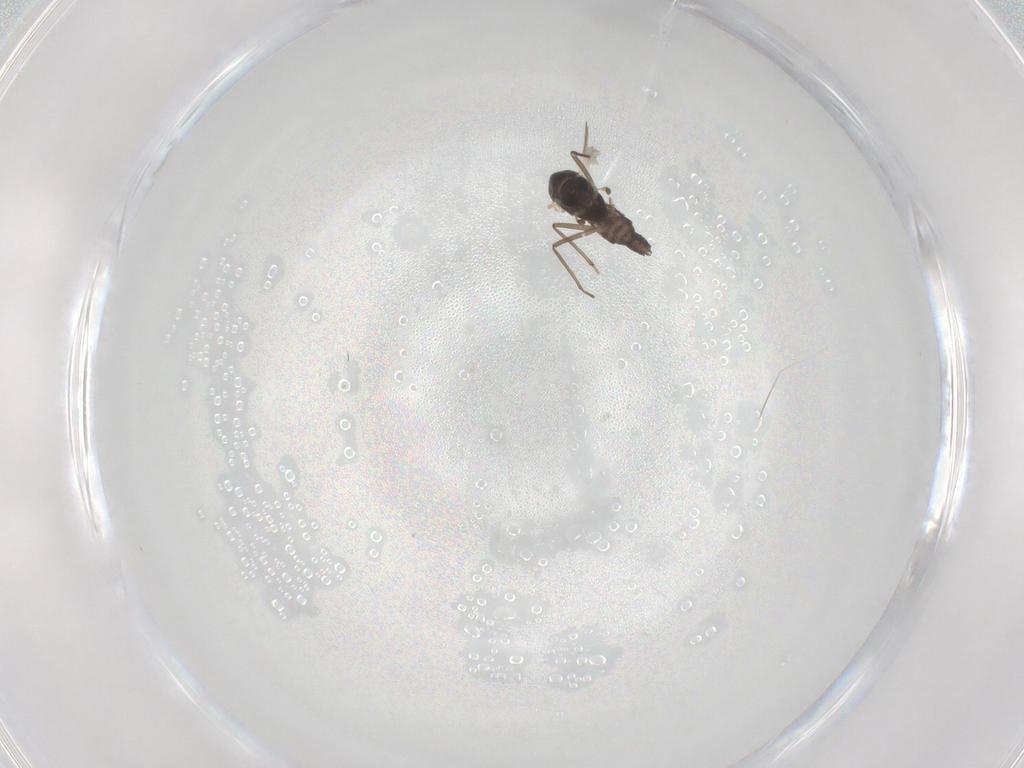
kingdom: Animalia
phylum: Arthropoda
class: Insecta
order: Diptera
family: Chironomidae
